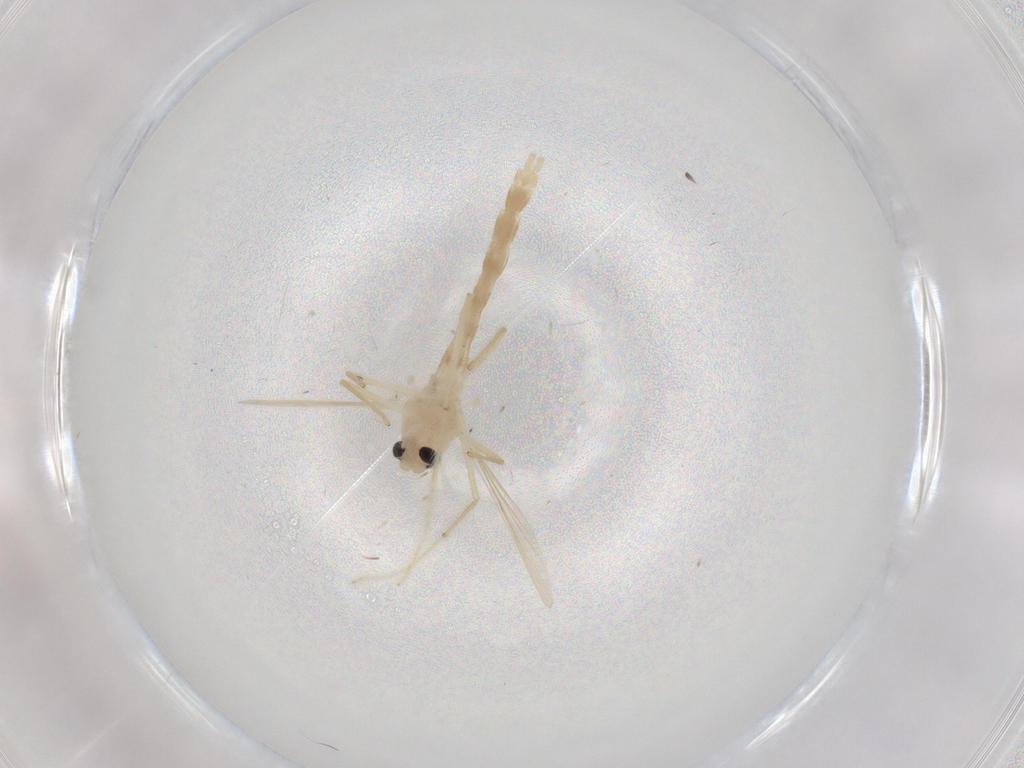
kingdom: Animalia
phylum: Arthropoda
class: Insecta
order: Diptera
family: Chironomidae
